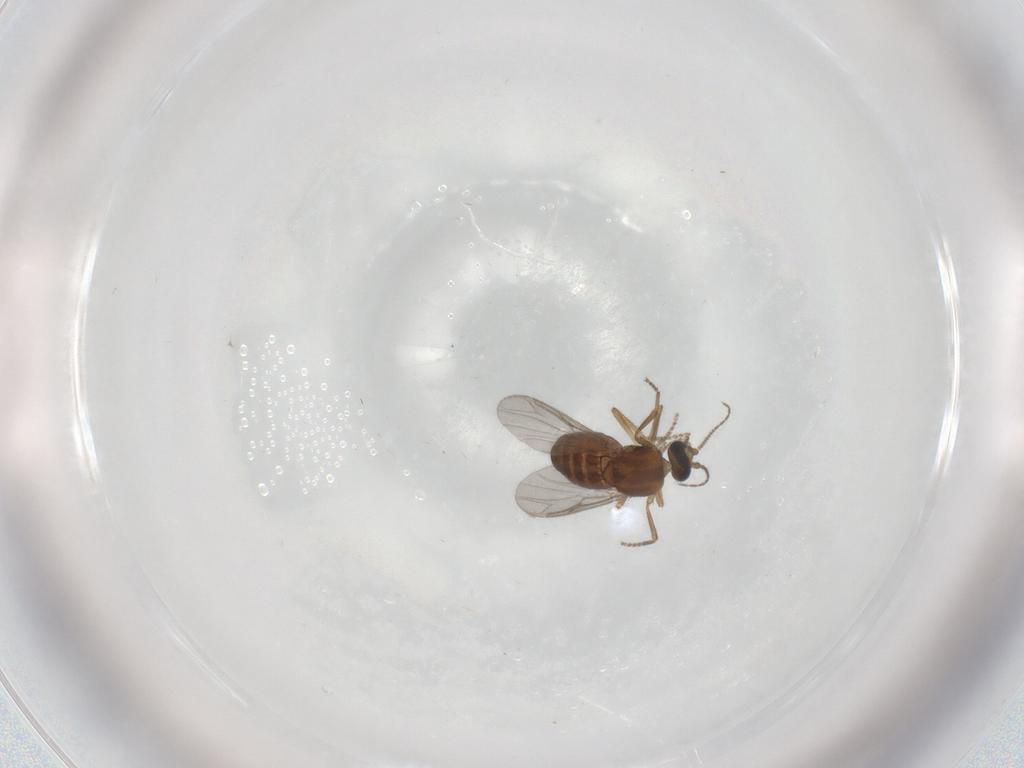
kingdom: Animalia
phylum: Arthropoda
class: Insecta
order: Diptera
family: Ceratopogonidae
